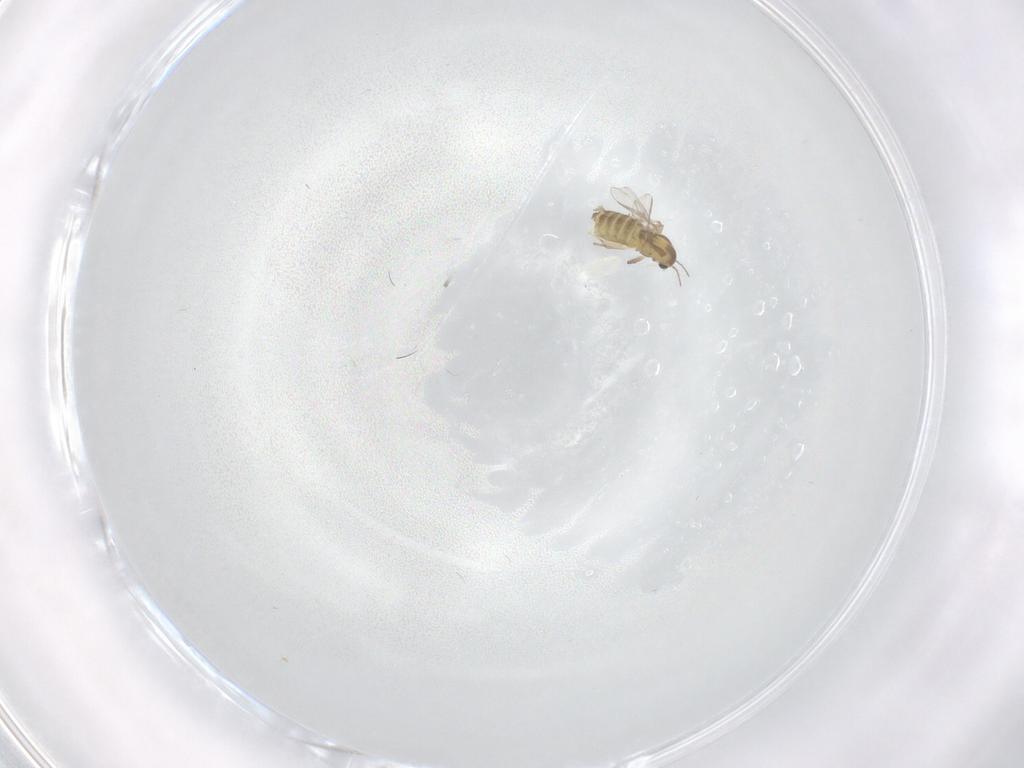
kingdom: Animalia
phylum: Arthropoda
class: Insecta
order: Diptera
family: Chironomidae
